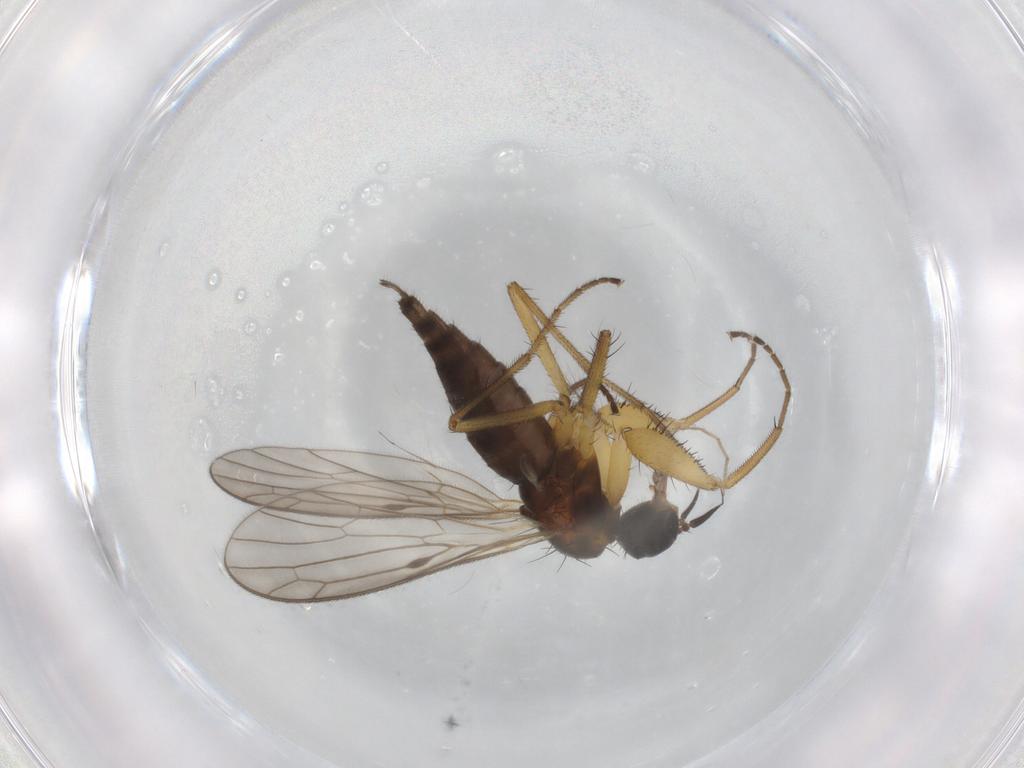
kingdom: Animalia
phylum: Arthropoda
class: Insecta
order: Diptera
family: Empididae
